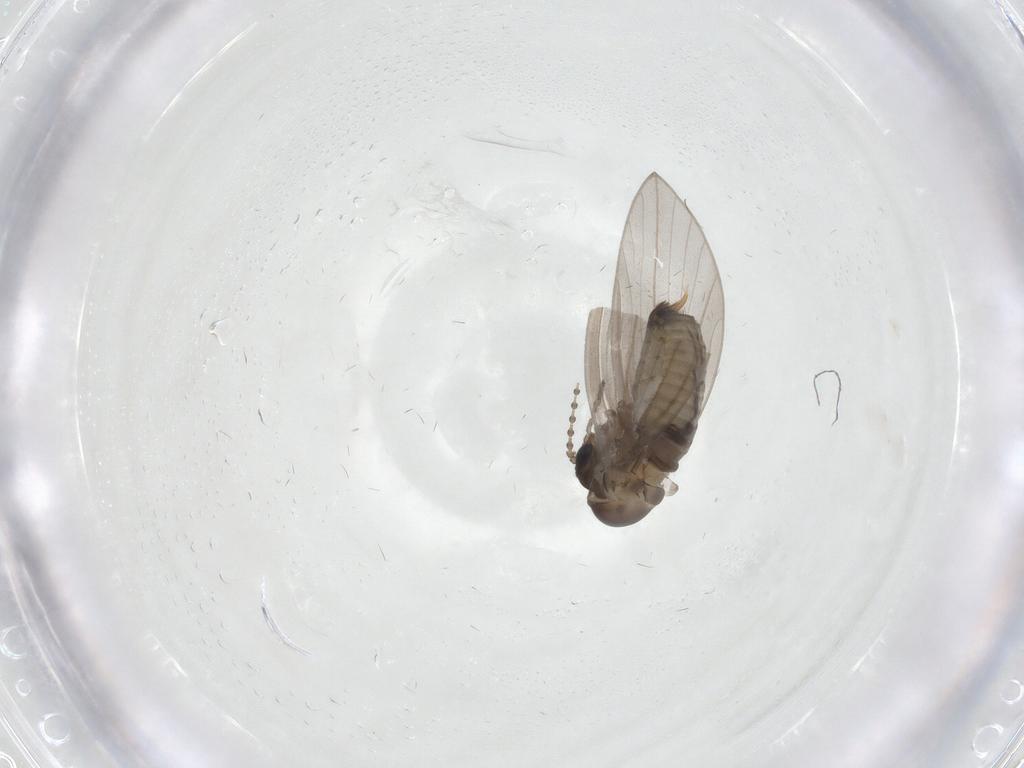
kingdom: Animalia
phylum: Arthropoda
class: Insecta
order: Diptera
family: Psychodidae
